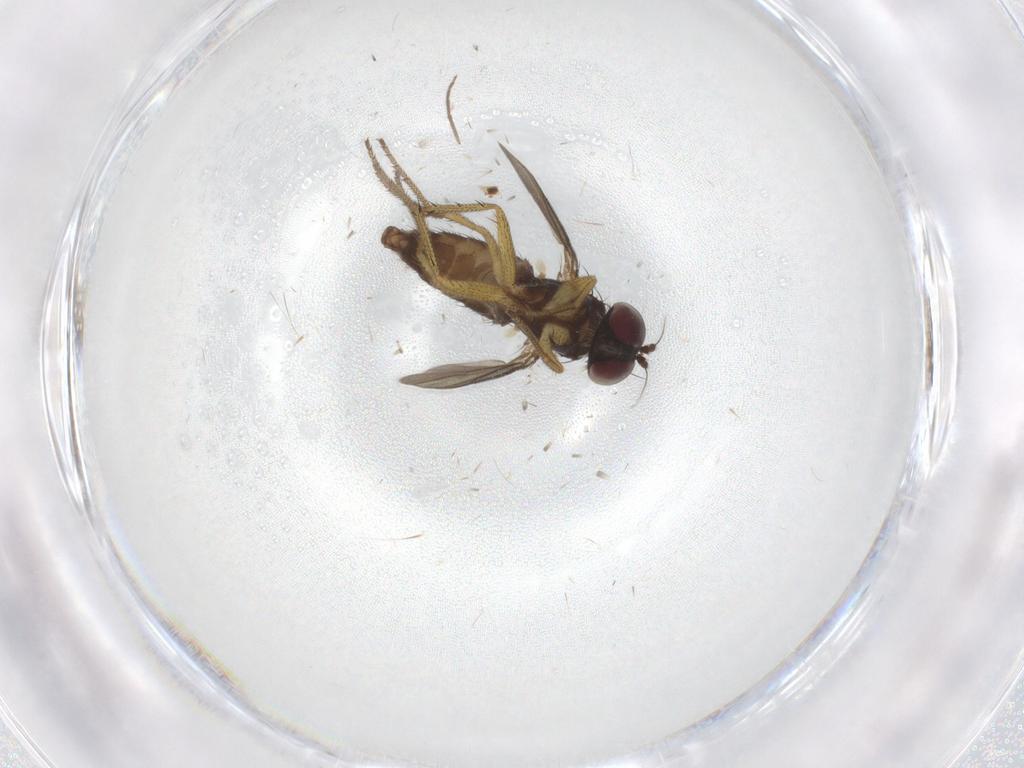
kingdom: Animalia
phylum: Arthropoda
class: Insecta
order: Diptera
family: Dolichopodidae
